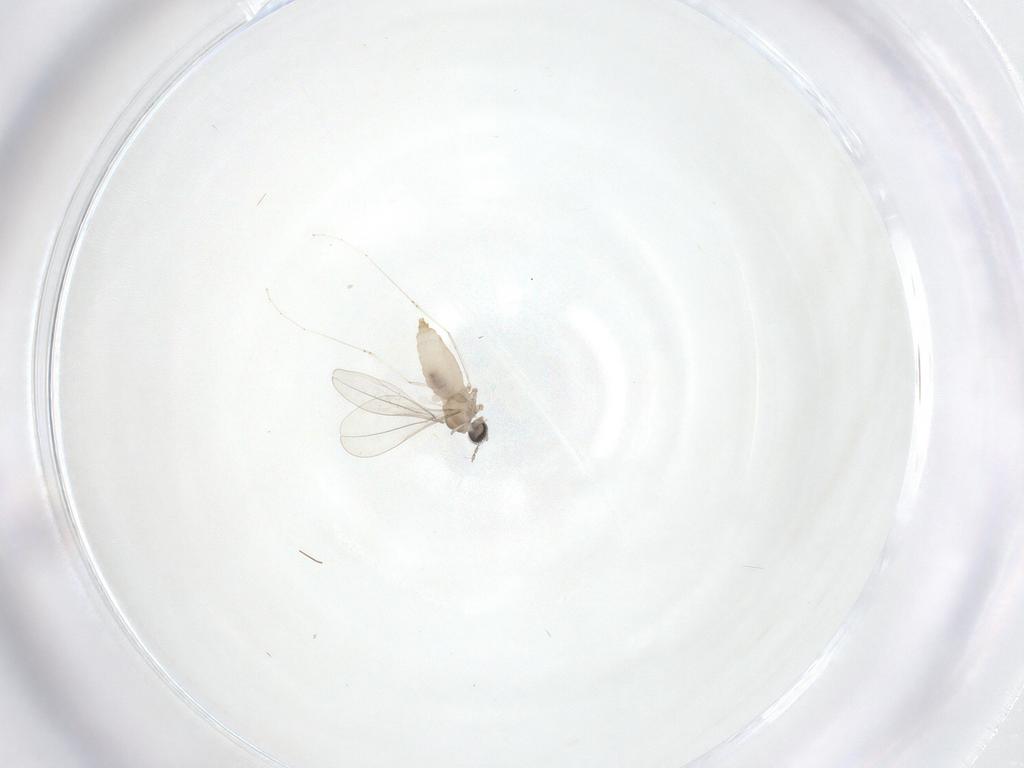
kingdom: Animalia
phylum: Arthropoda
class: Insecta
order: Diptera
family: Cecidomyiidae
